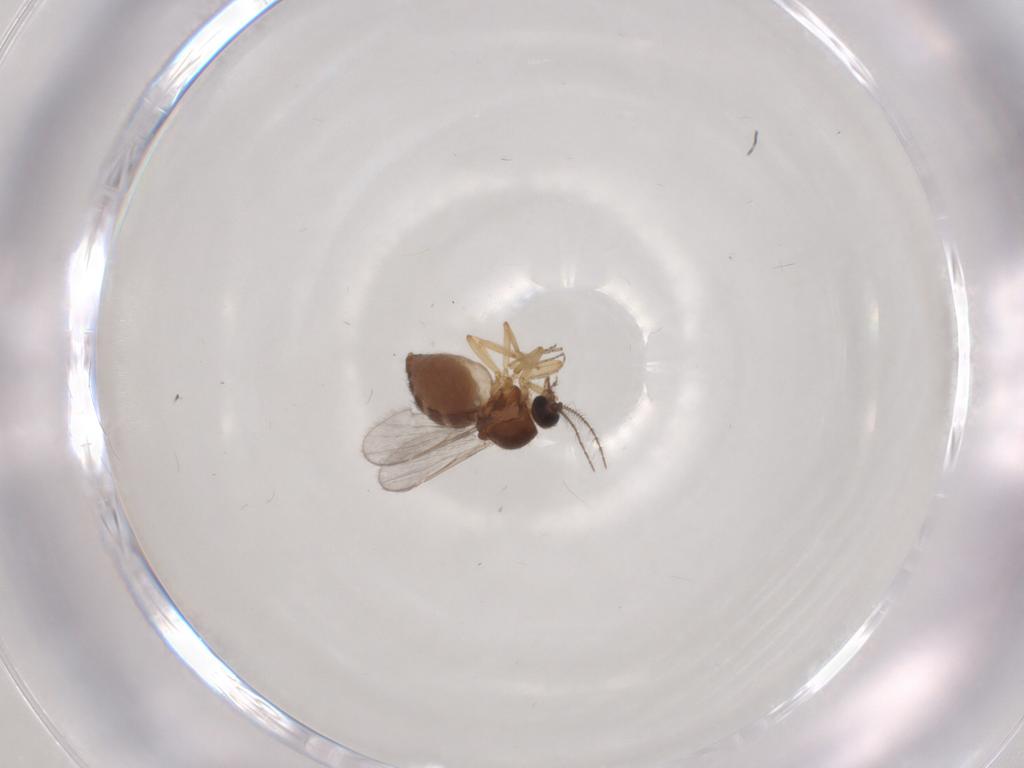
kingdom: Animalia
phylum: Arthropoda
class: Insecta
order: Diptera
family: Ceratopogonidae
